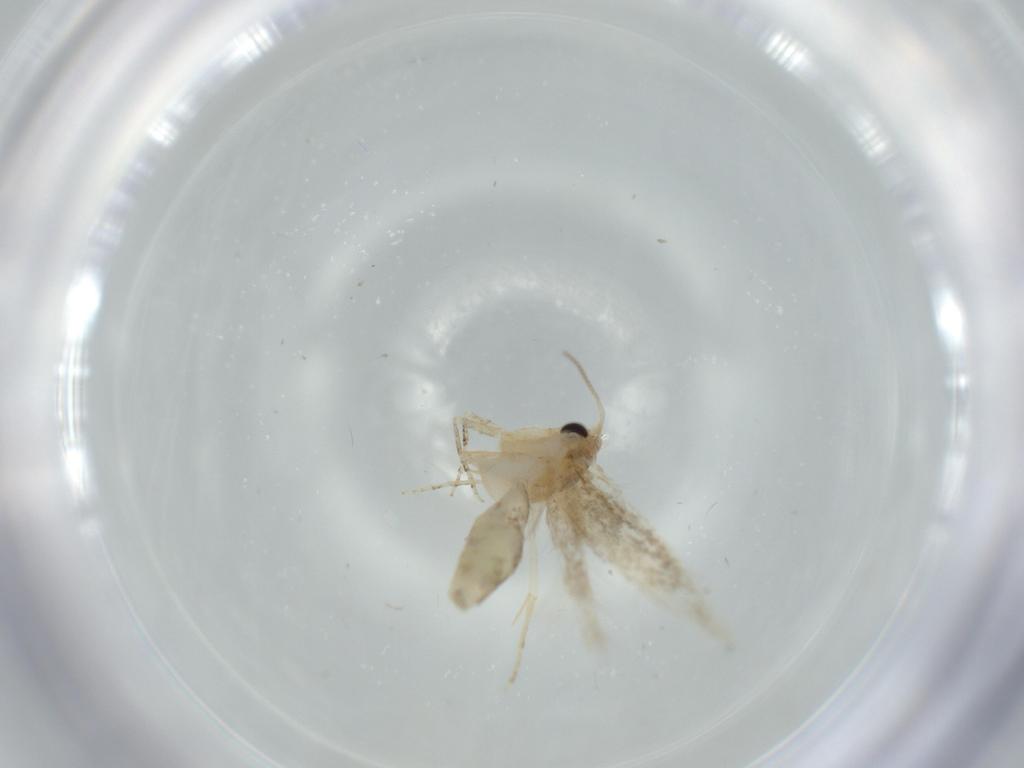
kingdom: Animalia
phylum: Arthropoda
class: Insecta
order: Lepidoptera
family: Bucculatricidae
